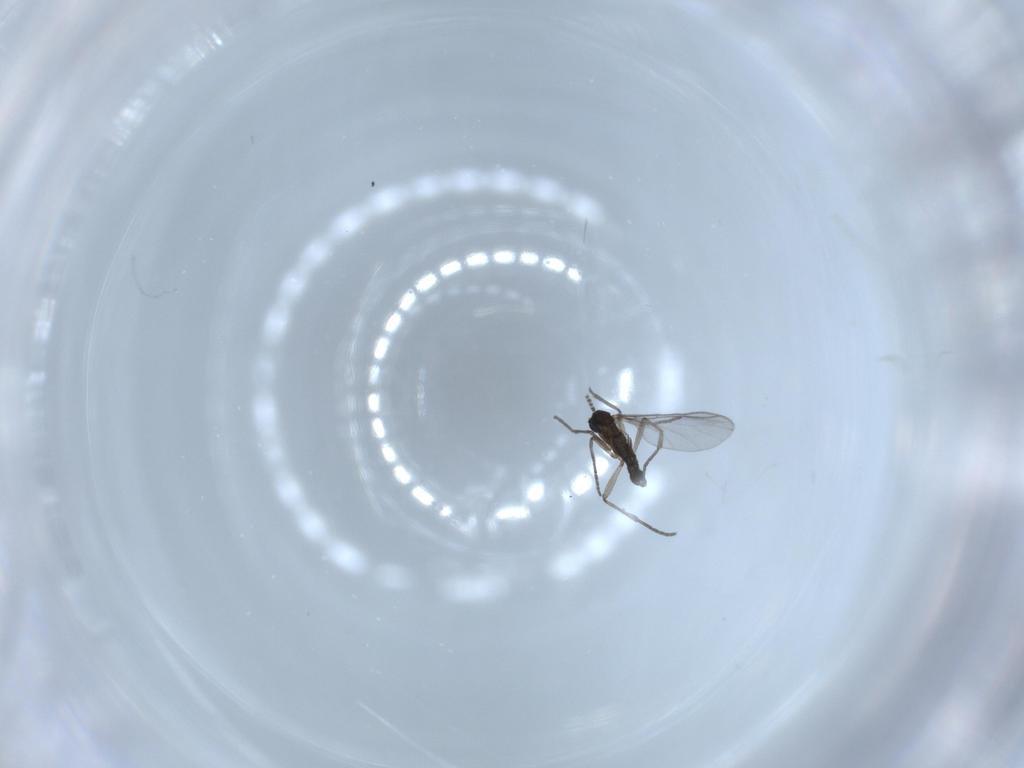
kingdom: Animalia
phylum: Arthropoda
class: Insecta
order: Diptera
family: Sciaridae
